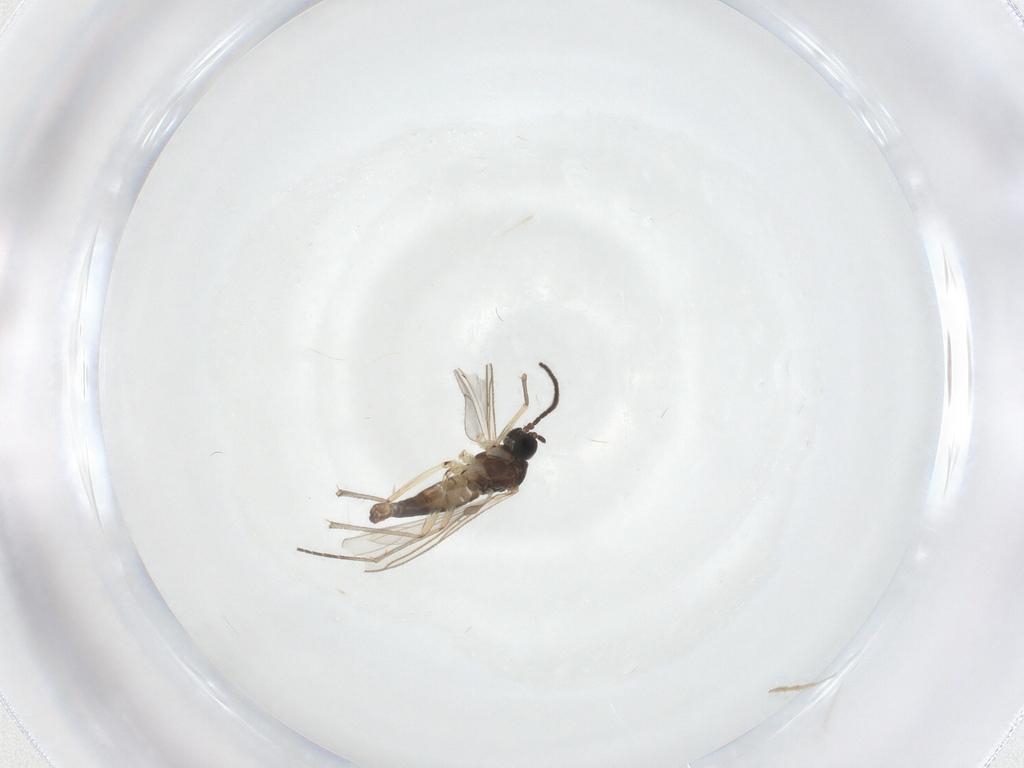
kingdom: Animalia
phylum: Arthropoda
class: Insecta
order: Diptera
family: Sciaridae
